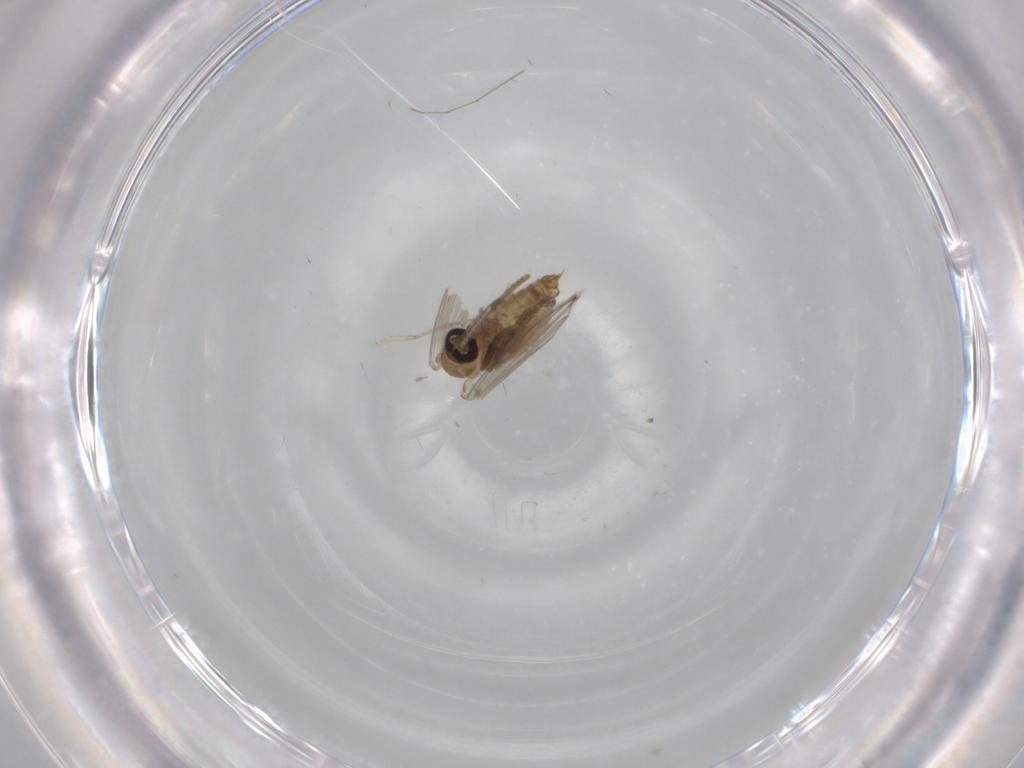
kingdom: Animalia
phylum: Arthropoda
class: Insecta
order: Diptera
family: Psychodidae
